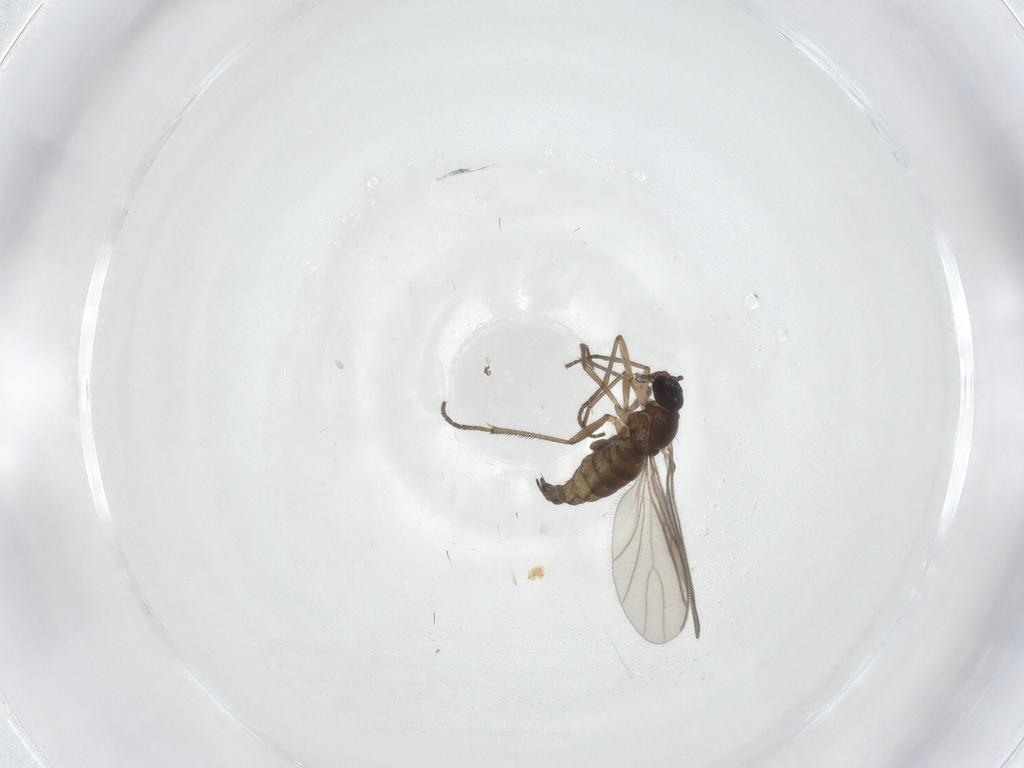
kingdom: Animalia
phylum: Arthropoda
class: Insecta
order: Diptera
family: Sciaridae
